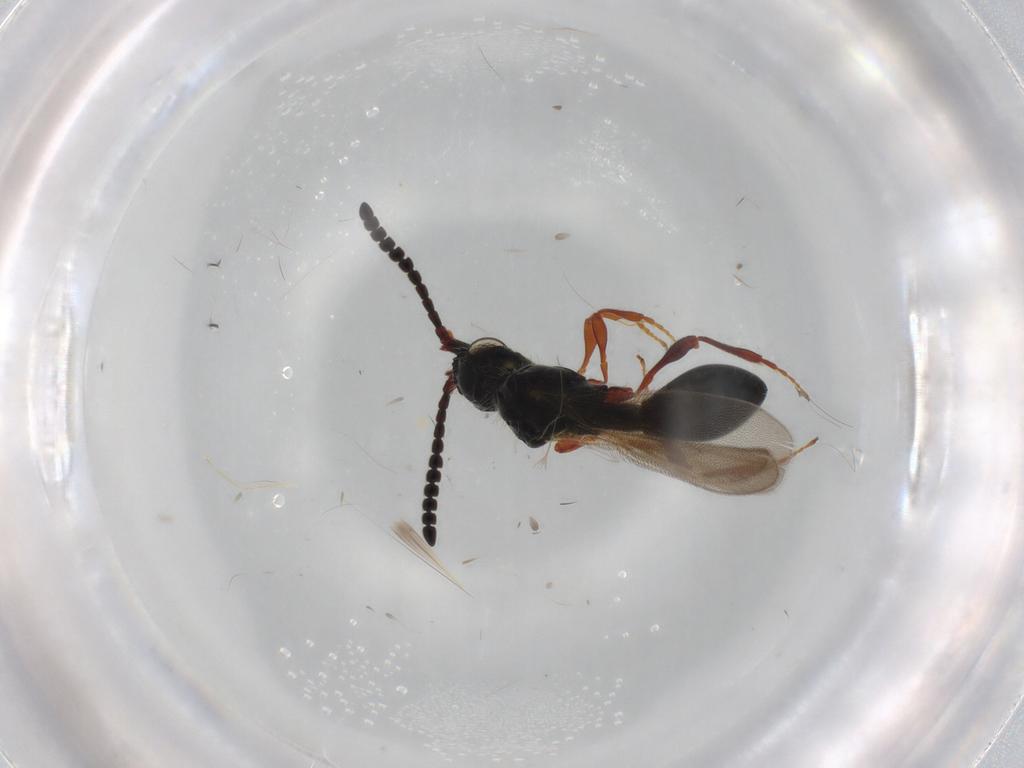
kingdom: Animalia
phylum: Arthropoda
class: Insecta
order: Hymenoptera
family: Diapriidae
